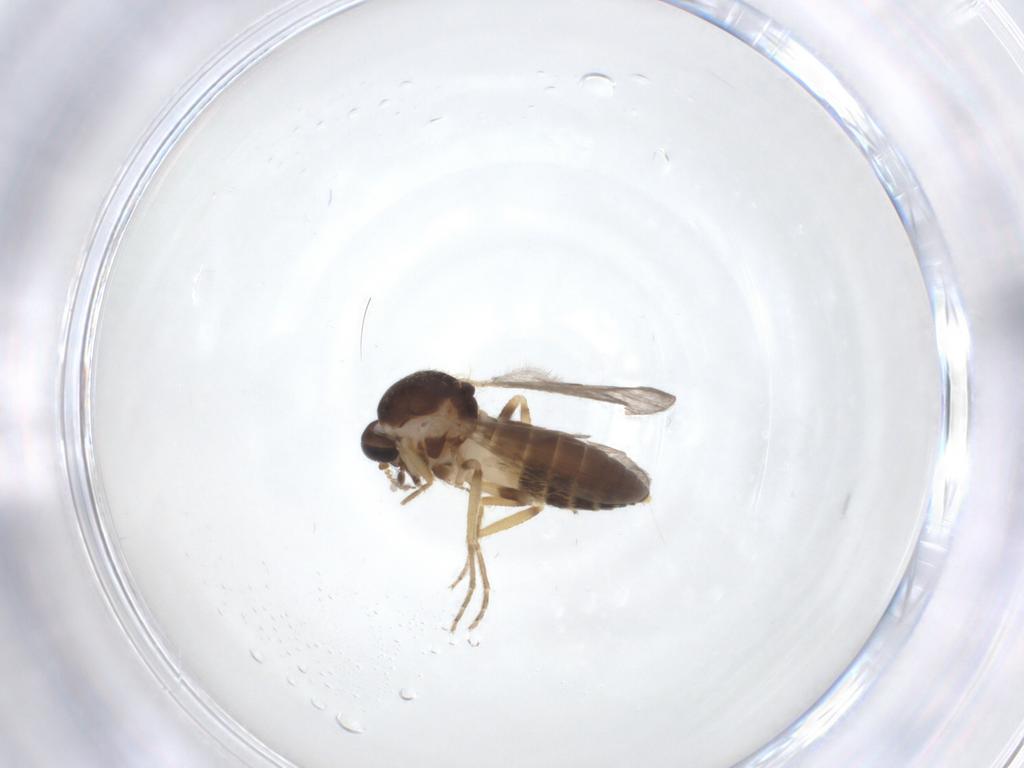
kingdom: Animalia
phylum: Arthropoda
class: Insecta
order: Diptera
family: Ceratopogonidae
